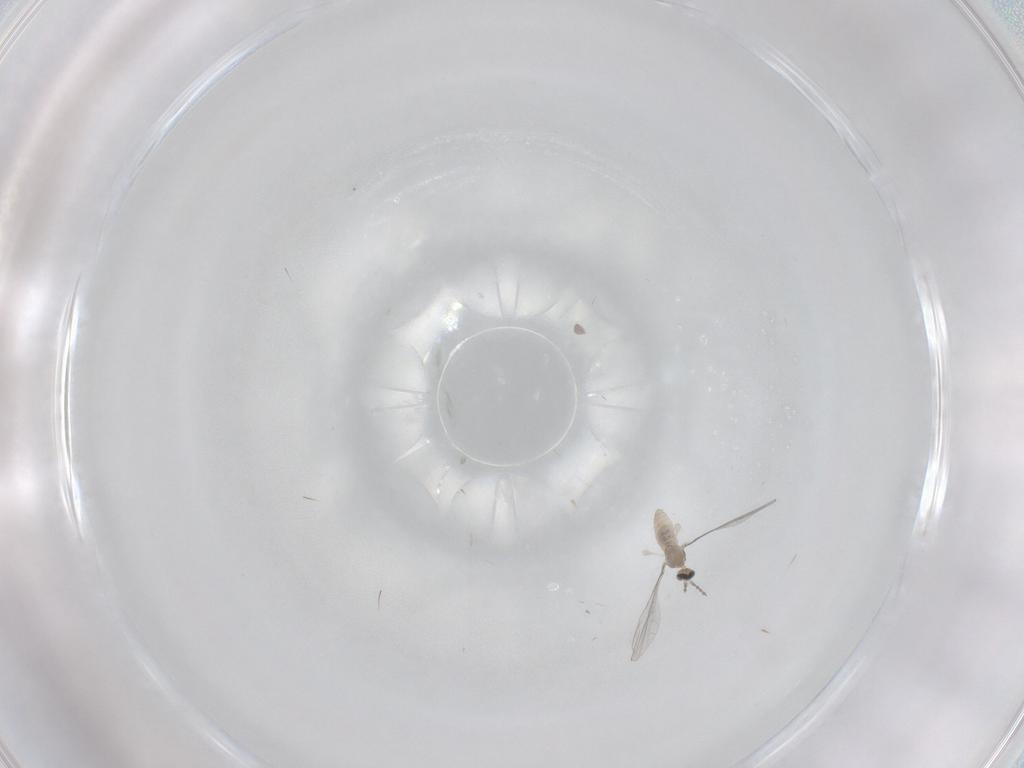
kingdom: Animalia
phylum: Arthropoda
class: Insecta
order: Diptera
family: Cecidomyiidae
